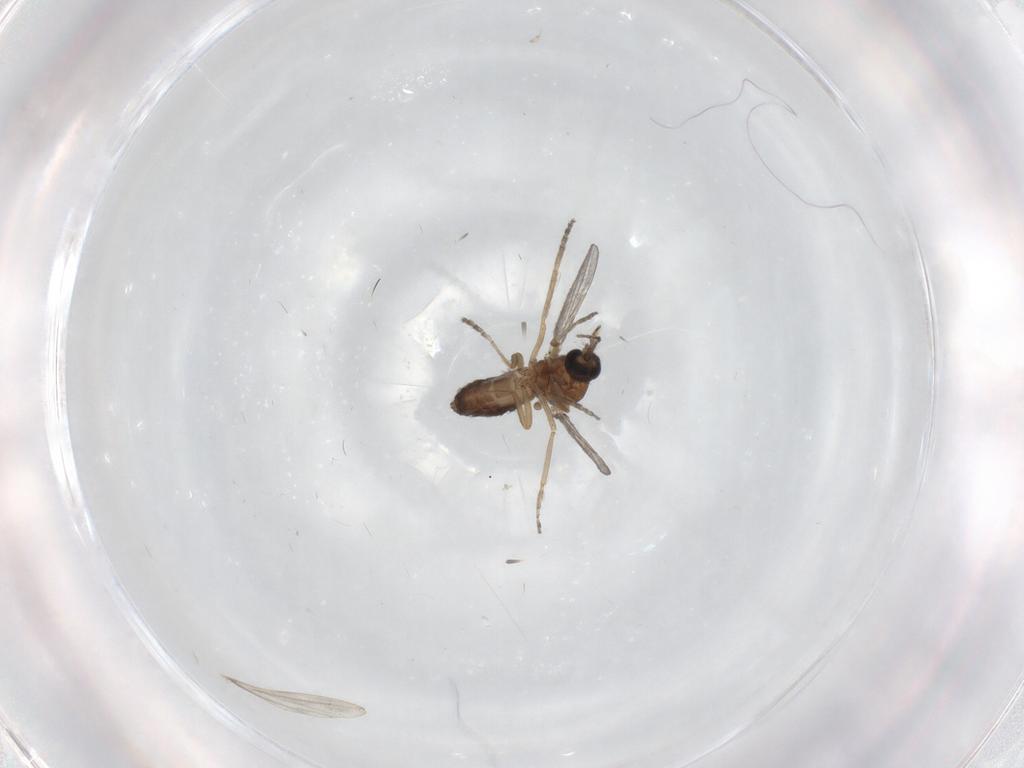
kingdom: Animalia
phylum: Arthropoda
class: Insecta
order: Diptera
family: Ceratopogonidae
